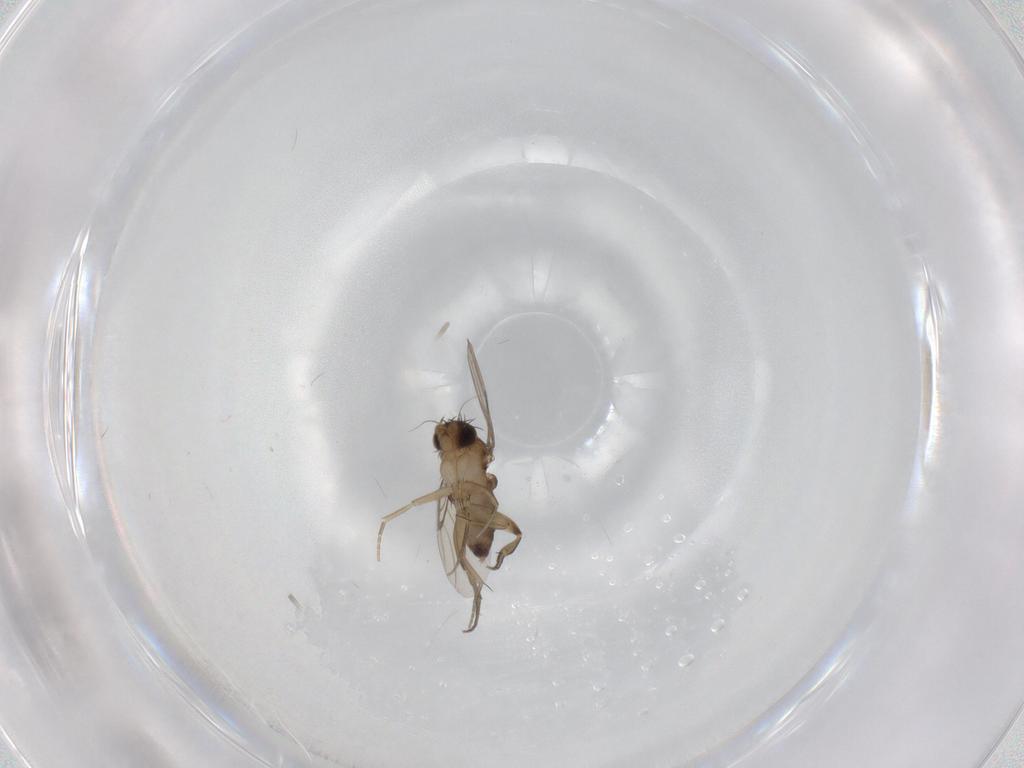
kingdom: Animalia
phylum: Arthropoda
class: Insecta
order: Diptera
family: Phoridae
